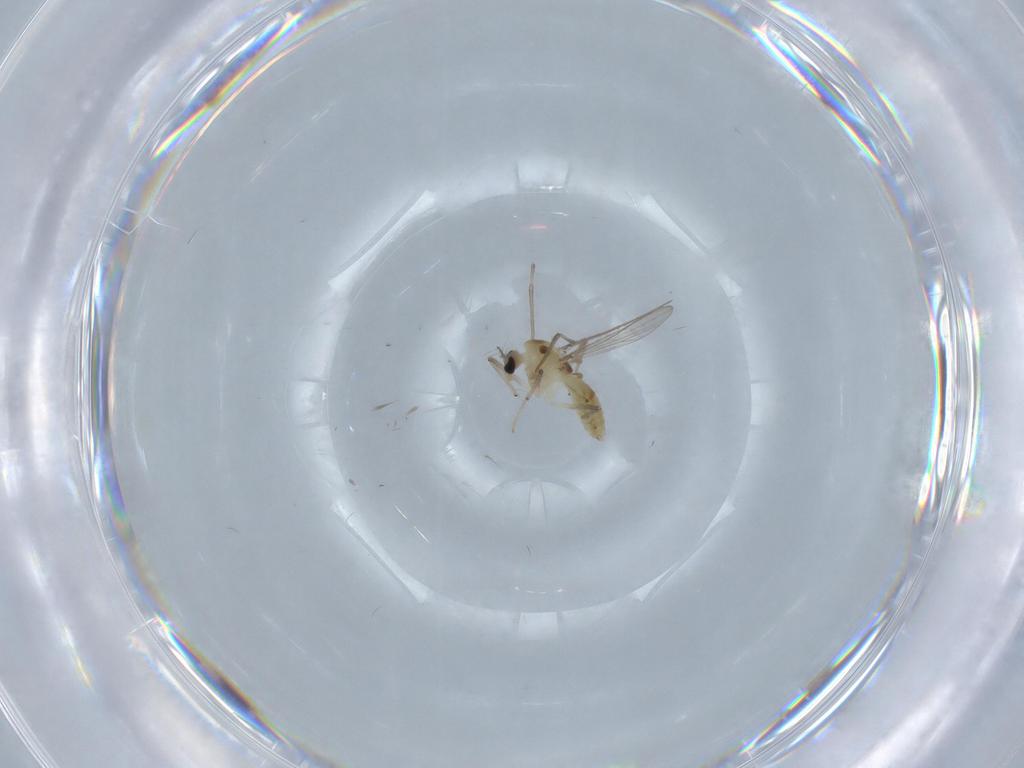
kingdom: Animalia
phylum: Arthropoda
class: Insecta
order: Diptera
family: Chironomidae
